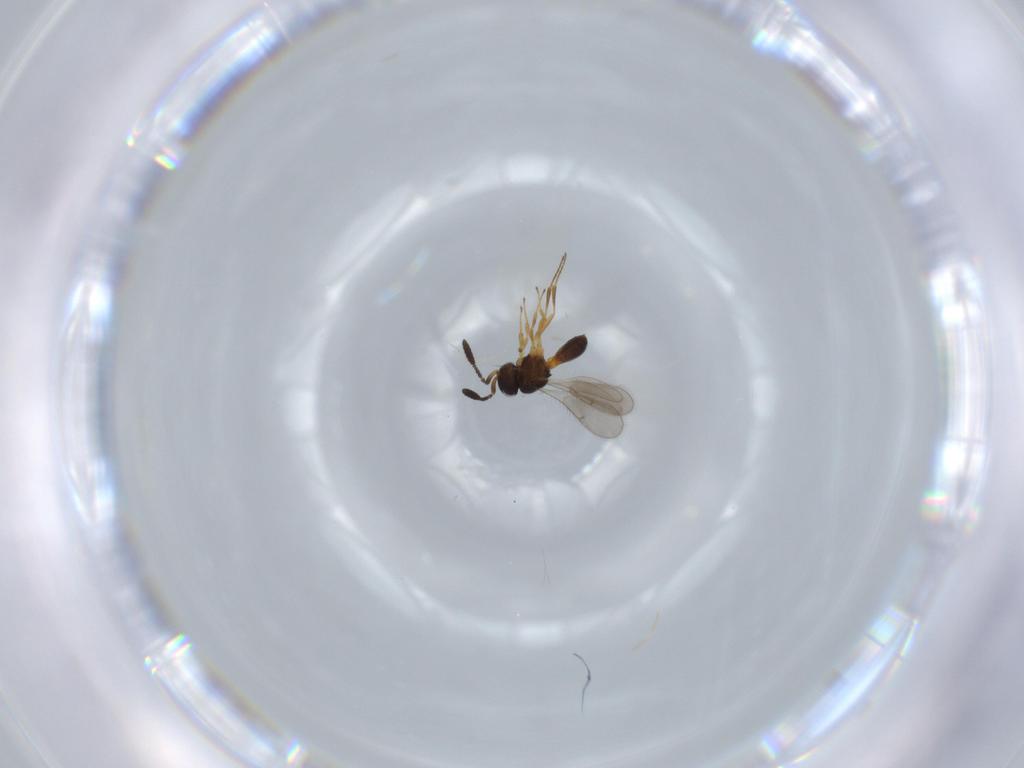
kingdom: Animalia
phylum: Arthropoda
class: Insecta
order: Hymenoptera
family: Scelionidae
